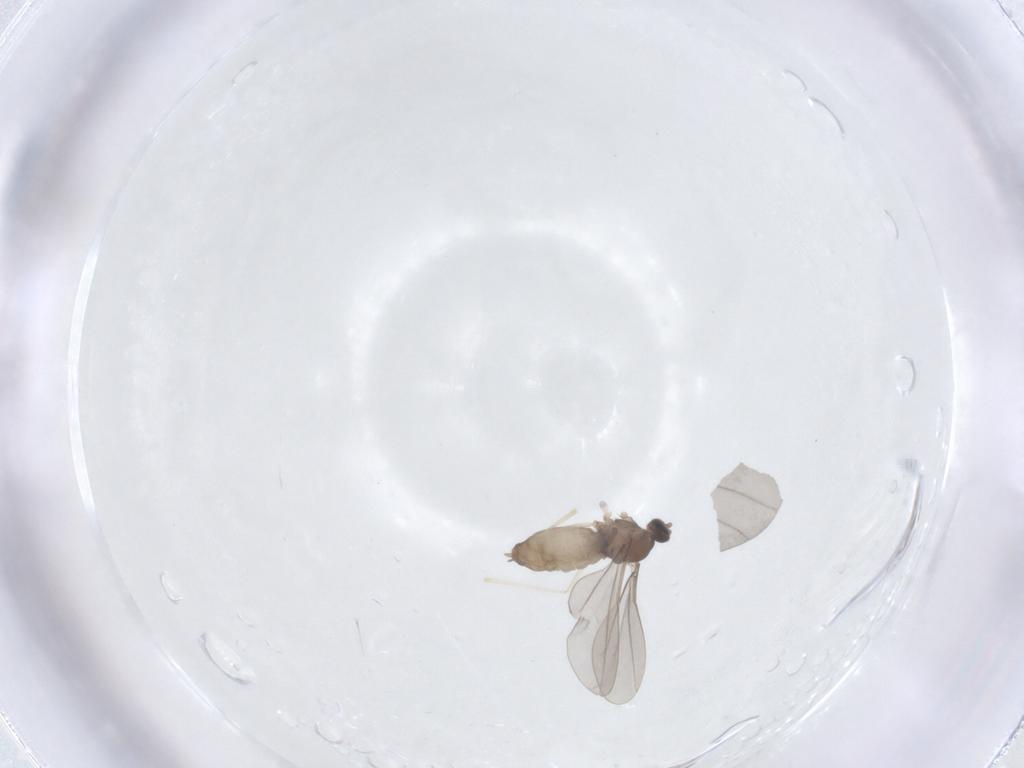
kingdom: Animalia
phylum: Arthropoda
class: Insecta
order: Diptera
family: Cecidomyiidae
